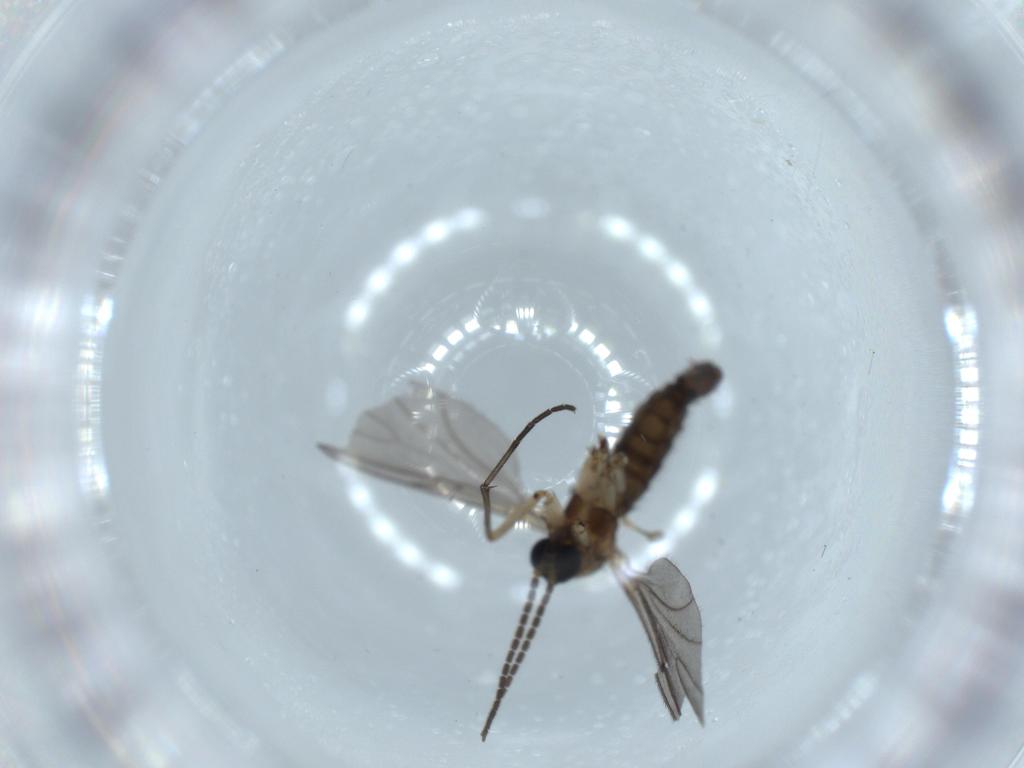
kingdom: Animalia
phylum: Arthropoda
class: Insecta
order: Diptera
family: Sciaridae
